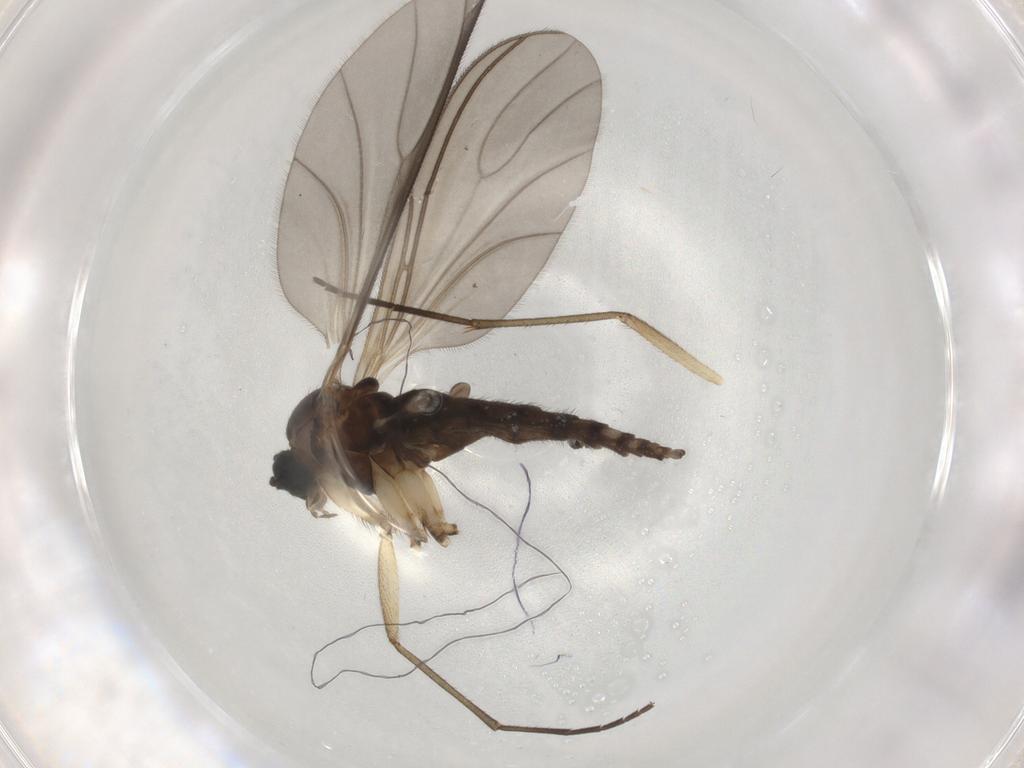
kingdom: Animalia
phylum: Arthropoda
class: Insecta
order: Diptera
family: Sciaridae
